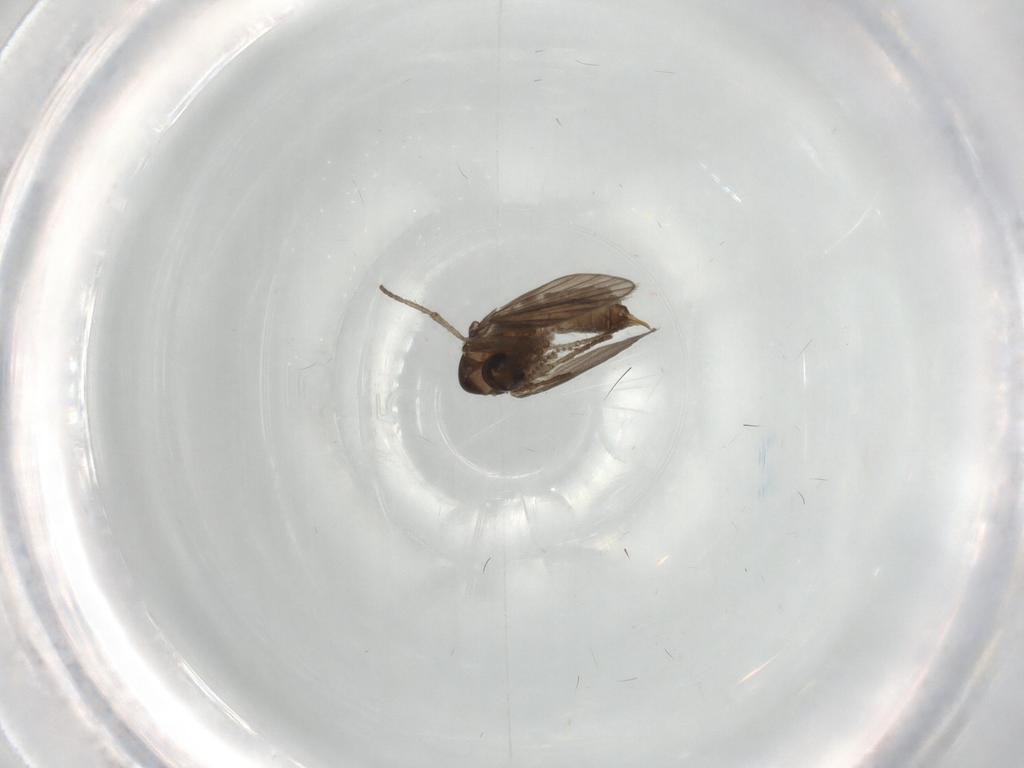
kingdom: Animalia
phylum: Arthropoda
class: Insecta
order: Diptera
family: Psychodidae
